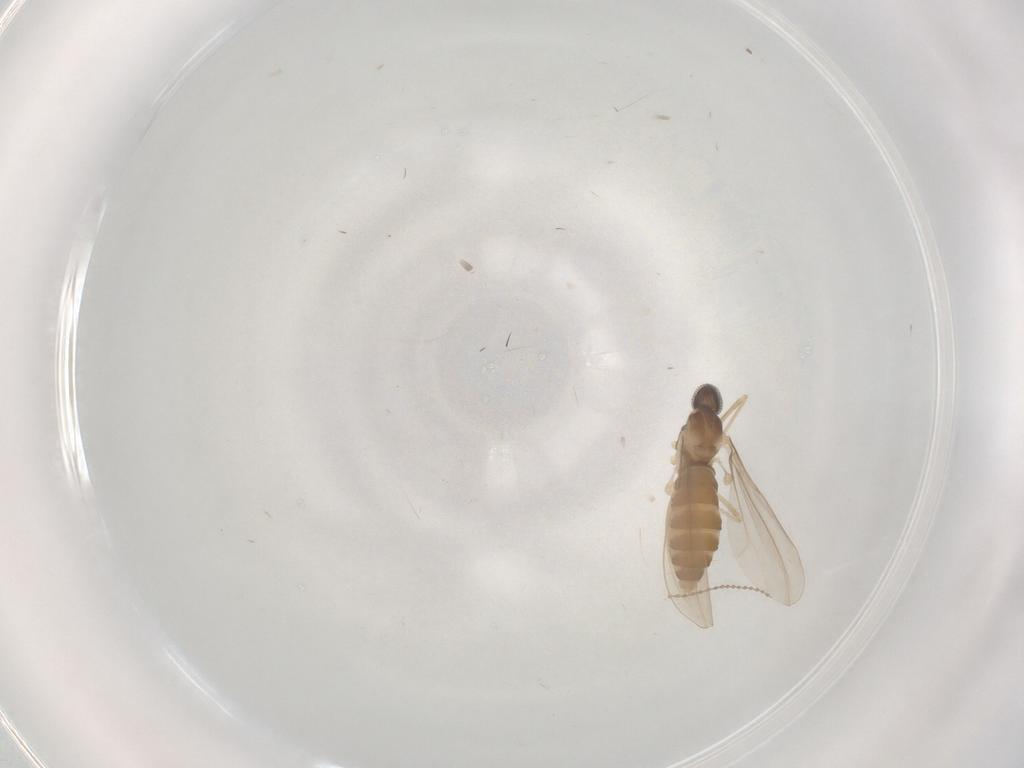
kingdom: Animalia
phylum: Arthropoda
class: Insecta
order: Diptera
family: Cecidomyiidae
